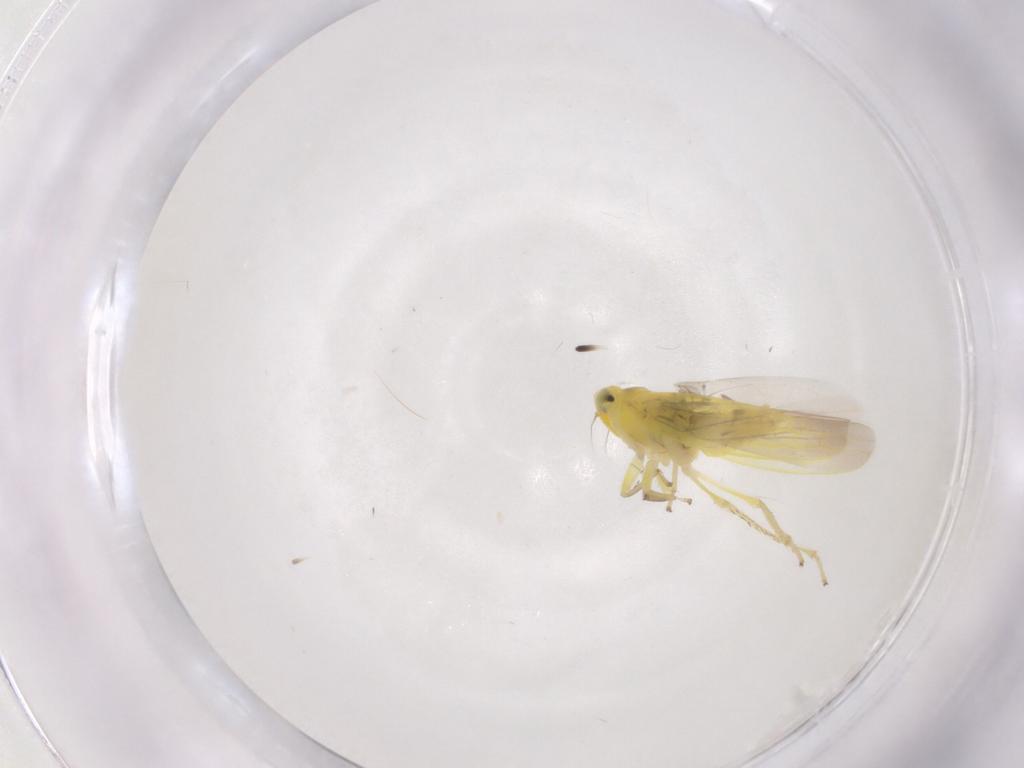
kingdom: Animalia
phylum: Arthropoda
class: Insecta
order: Hemiptera
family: Cicadellidae
